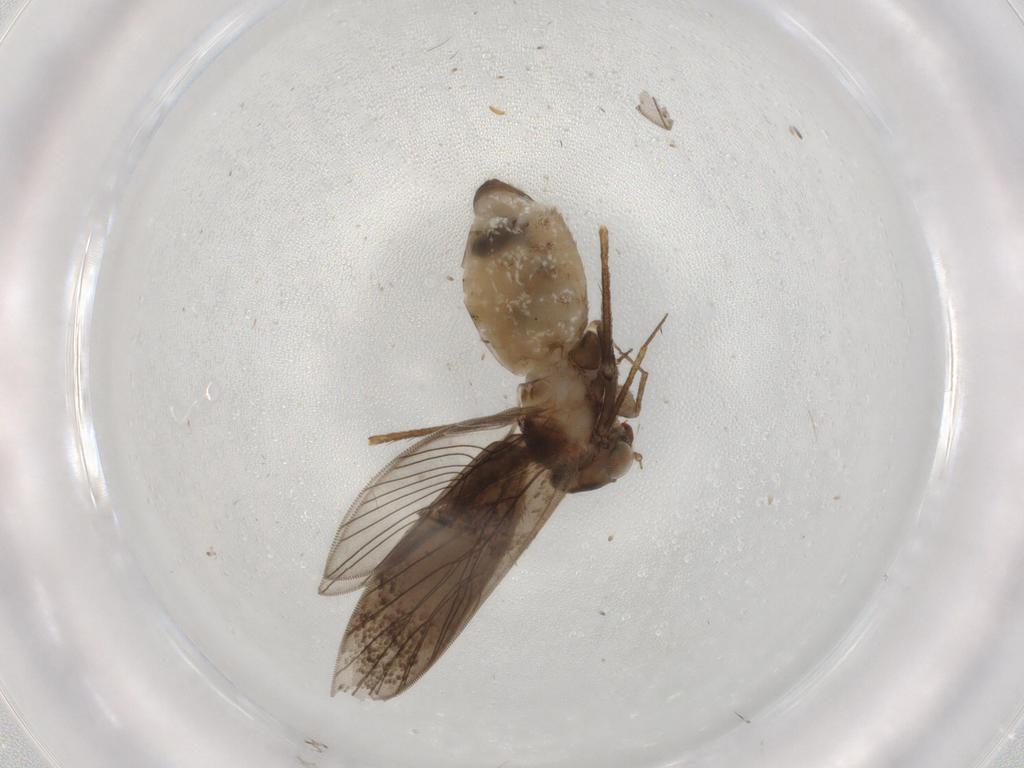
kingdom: Animalia
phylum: Arthropoda
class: Insecta
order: Psocodea
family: Lepidopsocidae
